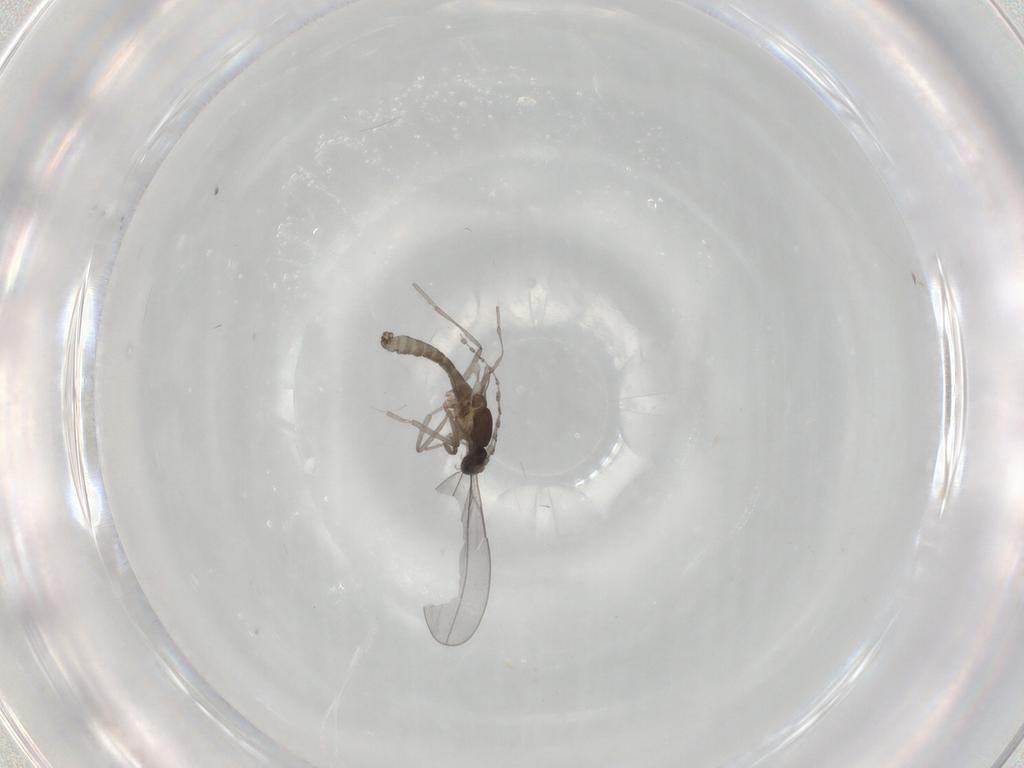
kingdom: Animalia
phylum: Arthropoda
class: Insecta
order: Diptera
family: Cecidomyiidae
